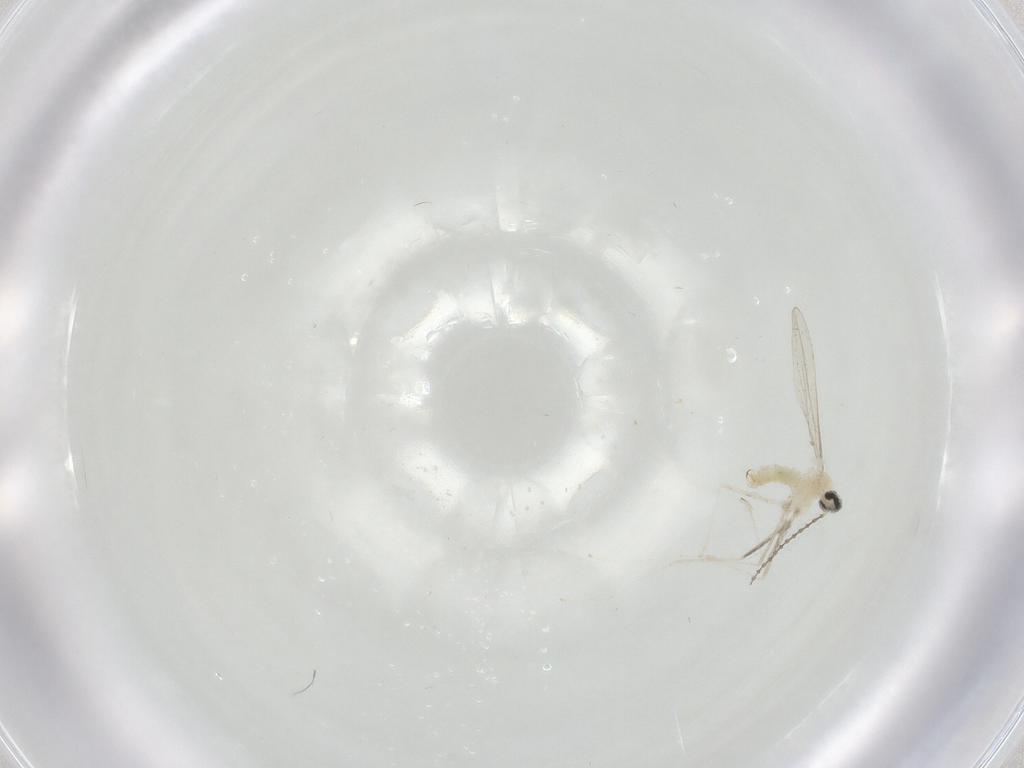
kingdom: Animalia
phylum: Arthropoda
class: Insecta
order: Diptera
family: Cecidomyiidae
